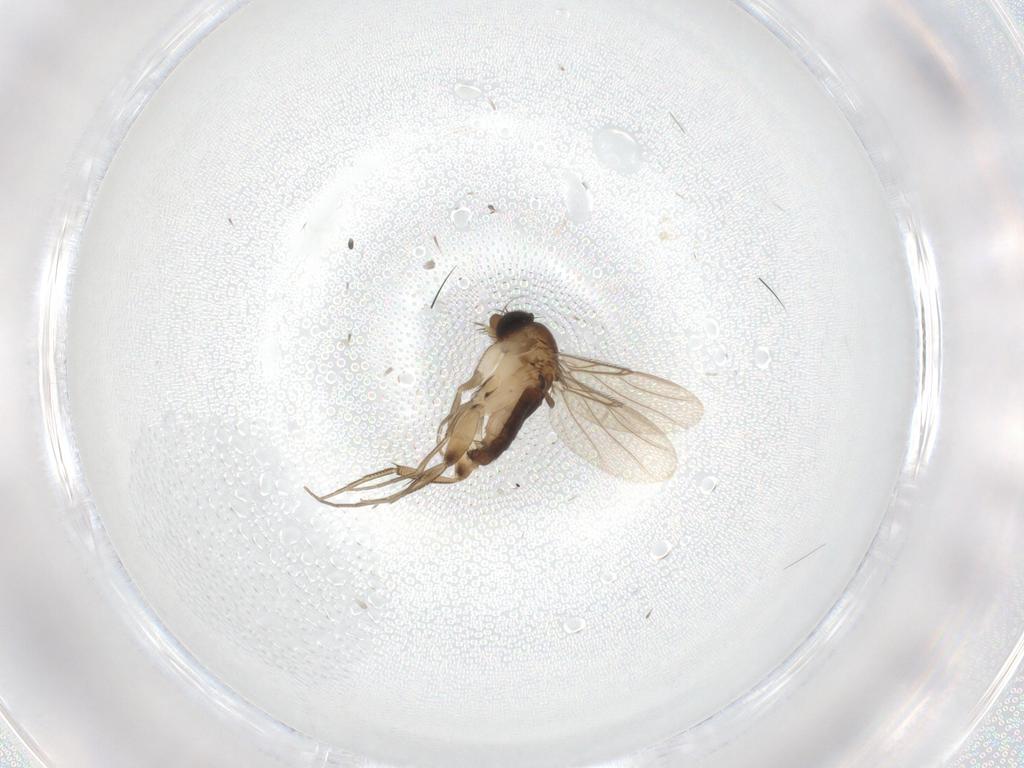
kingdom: Animalia
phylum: Arthropoda
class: Insecta
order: Diptera
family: Phoridae
